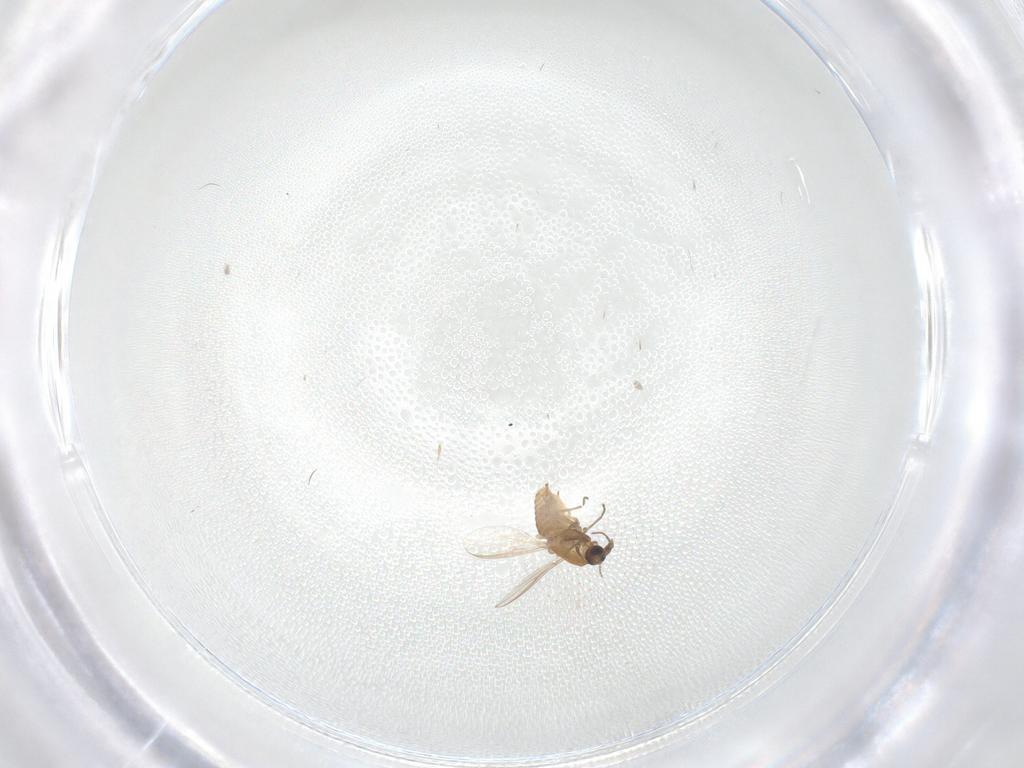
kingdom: Animalia
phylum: Arthropoda
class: Insecta
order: Diptera
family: Chironomidae
